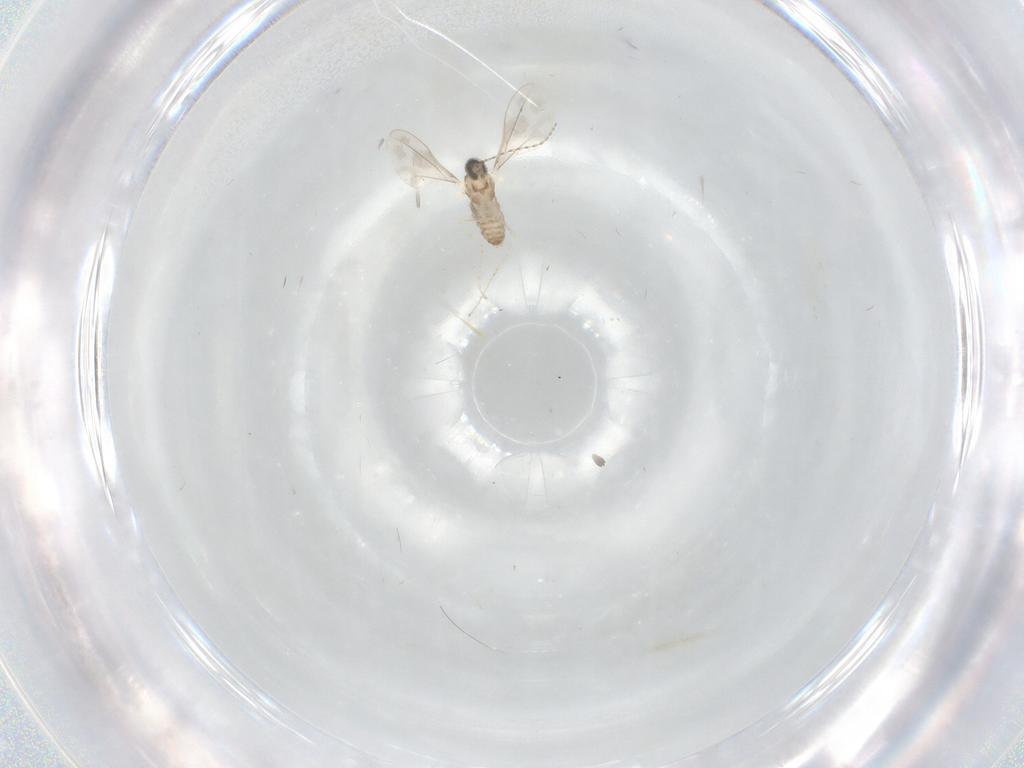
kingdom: Animalia
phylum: Arthropoda
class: Insecta
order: Diptera
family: Cecidomyiidae
